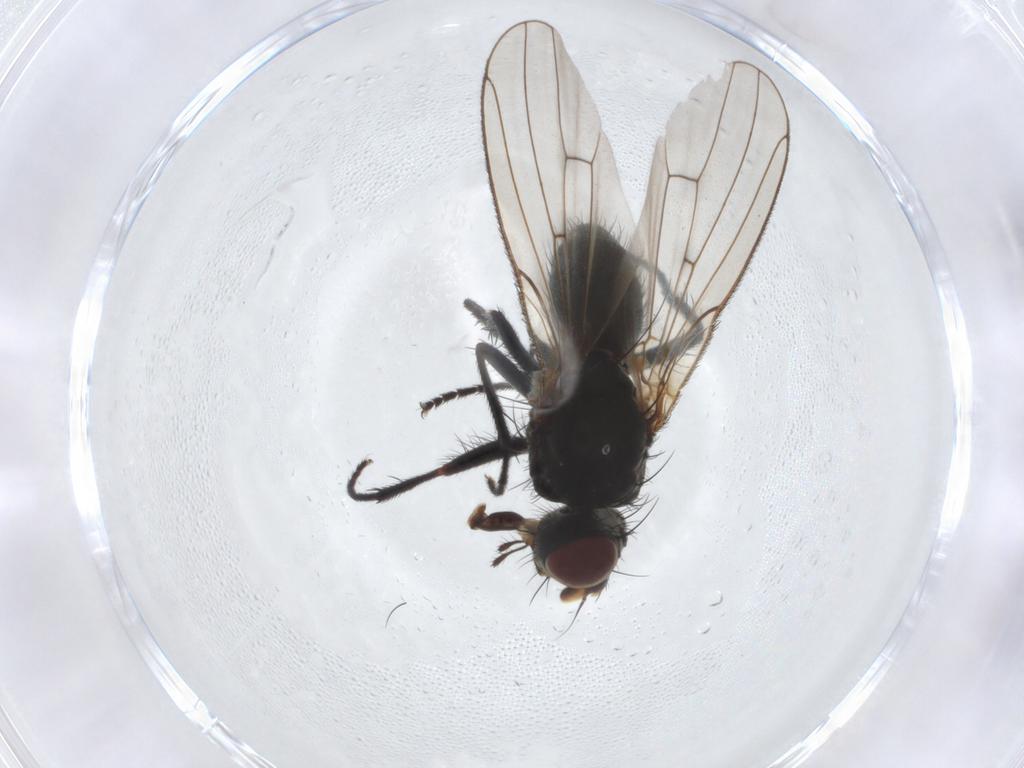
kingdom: Animalia
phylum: Arthropoda
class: Insecta
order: Diptera
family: Muscidae
